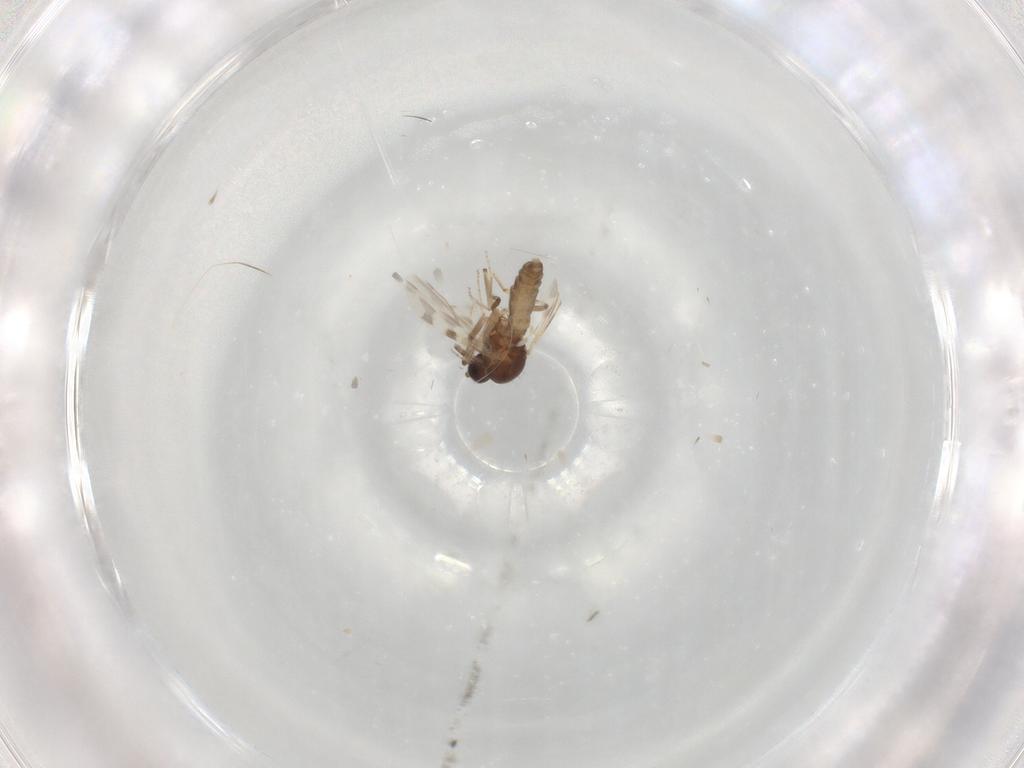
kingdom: Animalia
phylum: Arthropoda
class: Insecta
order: Diptera
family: Ceratopogonidae
